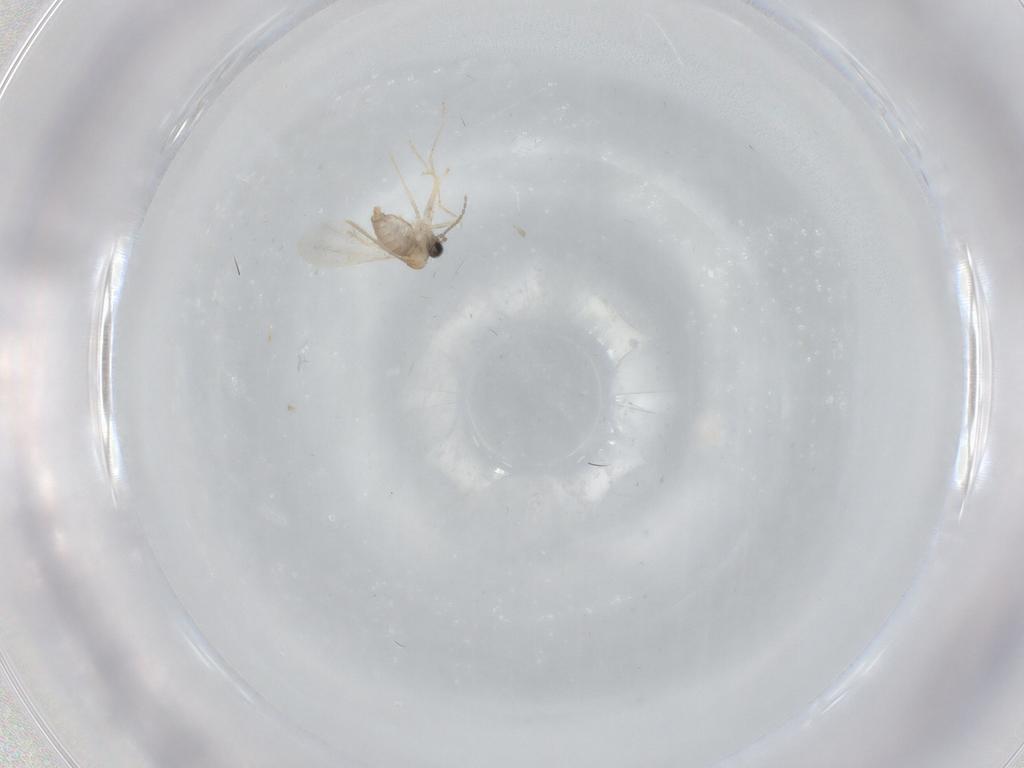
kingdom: Animalia
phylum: Arthropoda
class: Insecta
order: Diptera
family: Cecidomyiidae
